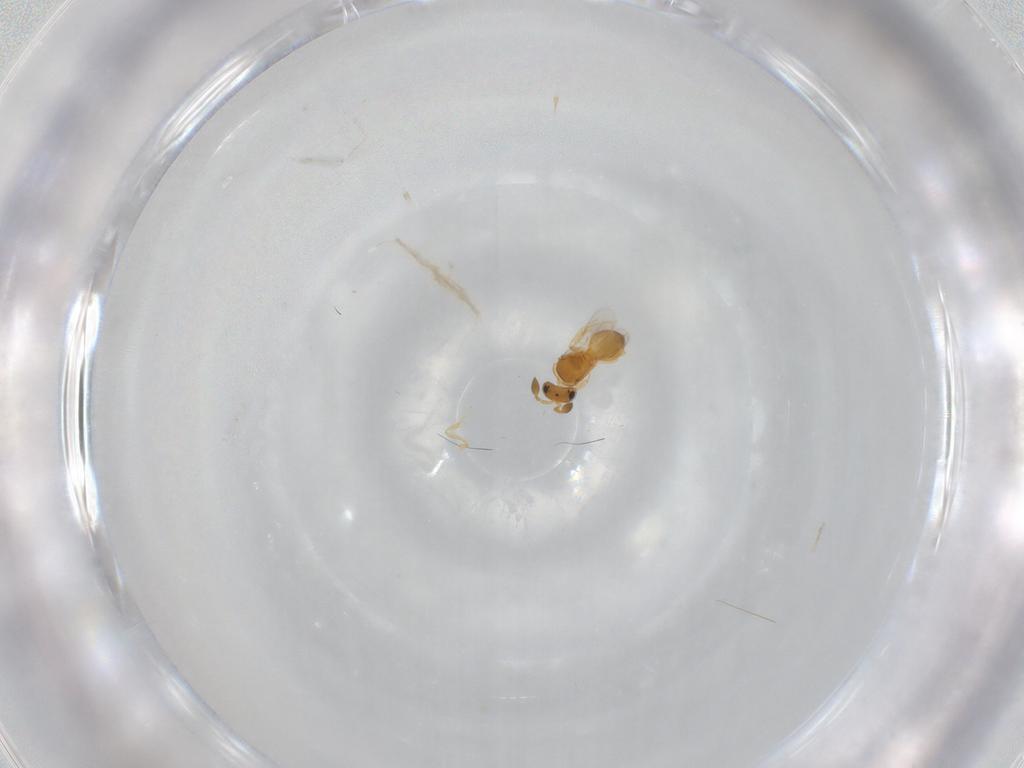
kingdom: Animalia
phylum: Arthropoda
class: Insecta
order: Hymenoptera
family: Scelionidae
